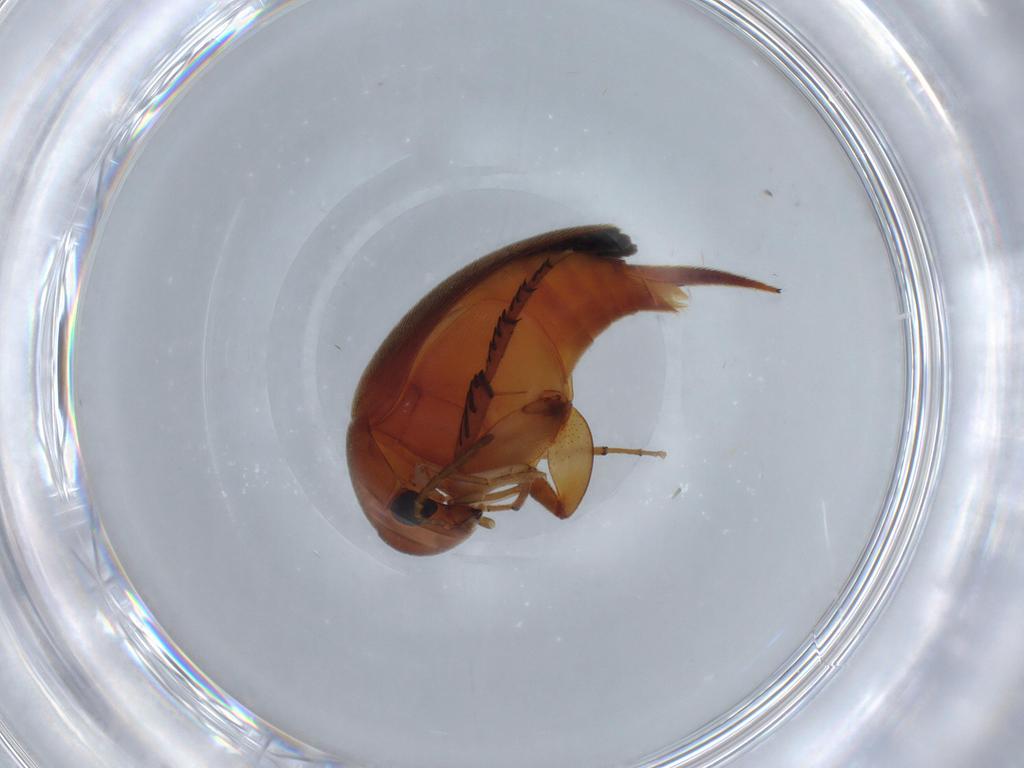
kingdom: Animalia
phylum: Arthropoda
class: Insecta
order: Coleoptera
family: Mordellidae
